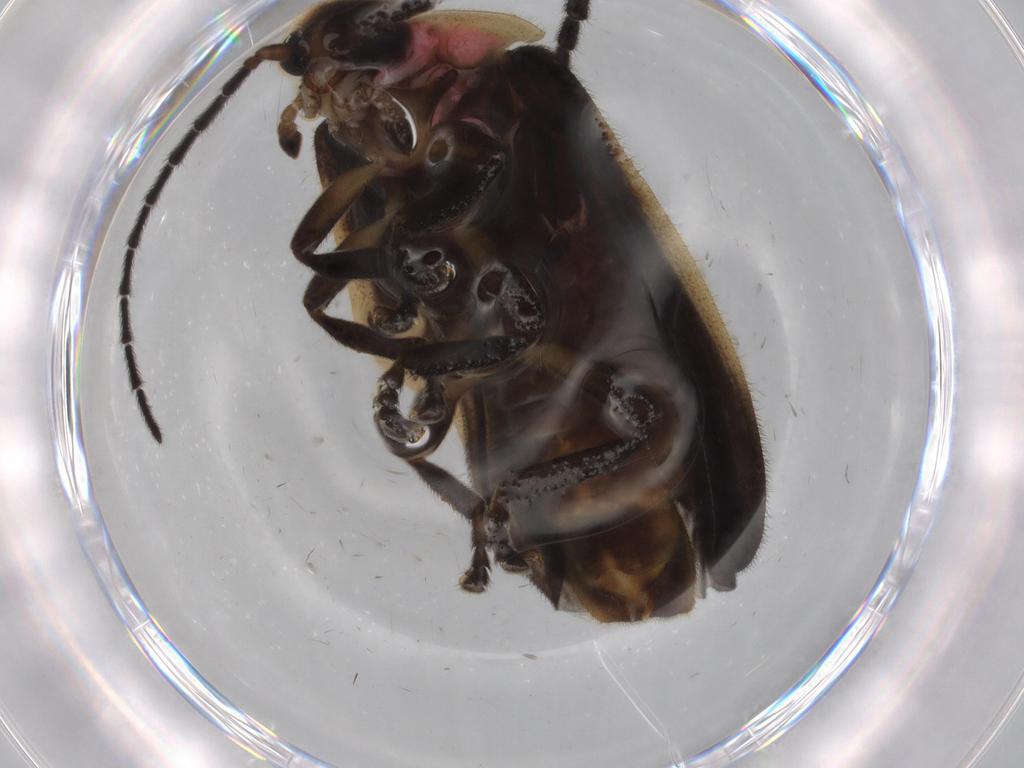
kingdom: Animalia
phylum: Arthropoda
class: Insecta
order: Coleoptera
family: Lampyridae
